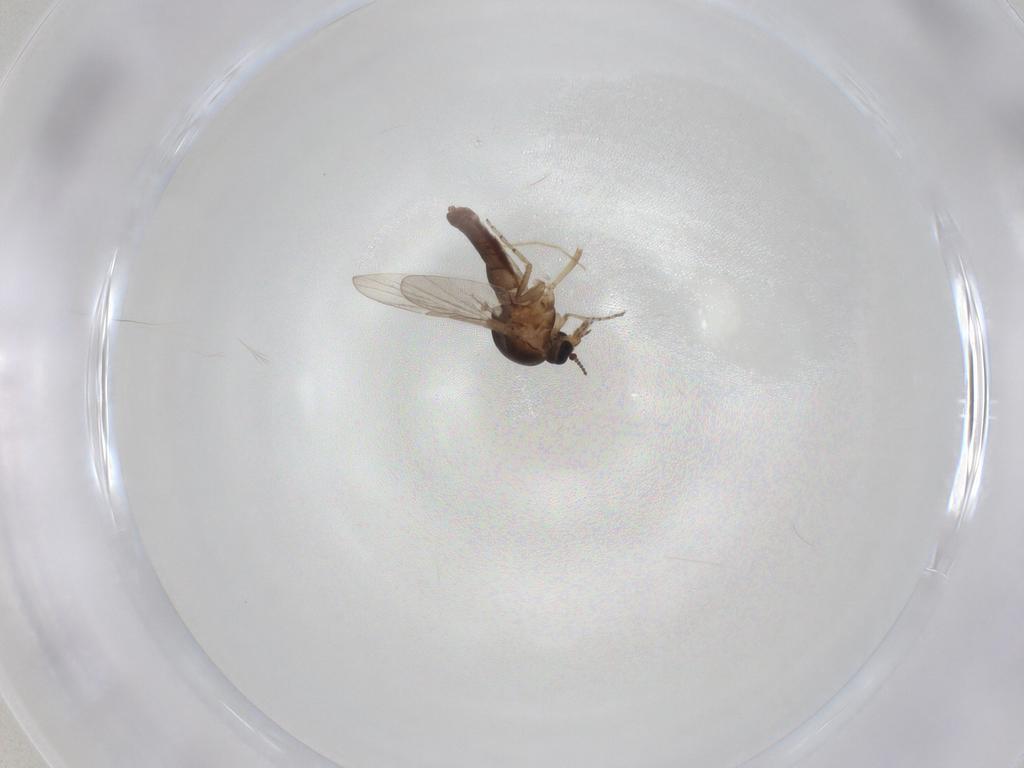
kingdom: Animalia
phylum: Arthropoda
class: Insecta
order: Diptera
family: Ceratopogonidae
